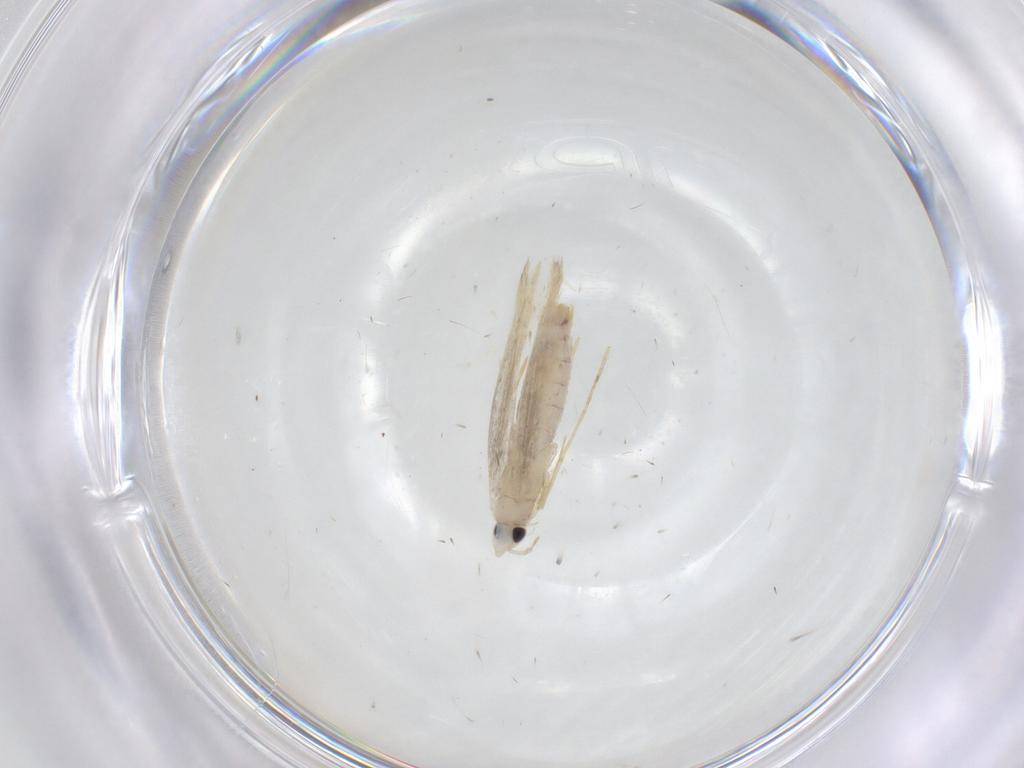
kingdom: Animalia
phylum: Arthropoda
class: Insecta
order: Lepidoptera
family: Tineidae
